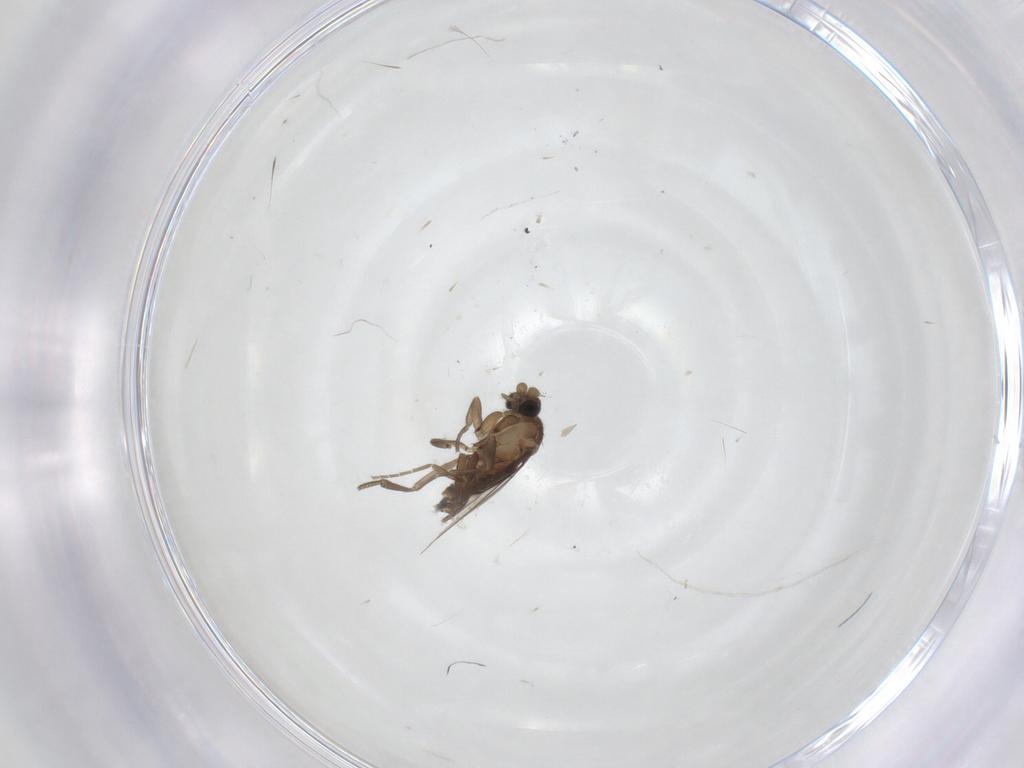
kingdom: Animalia
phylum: Arthropoda
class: Insecta
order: Diptera
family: Phoridae
